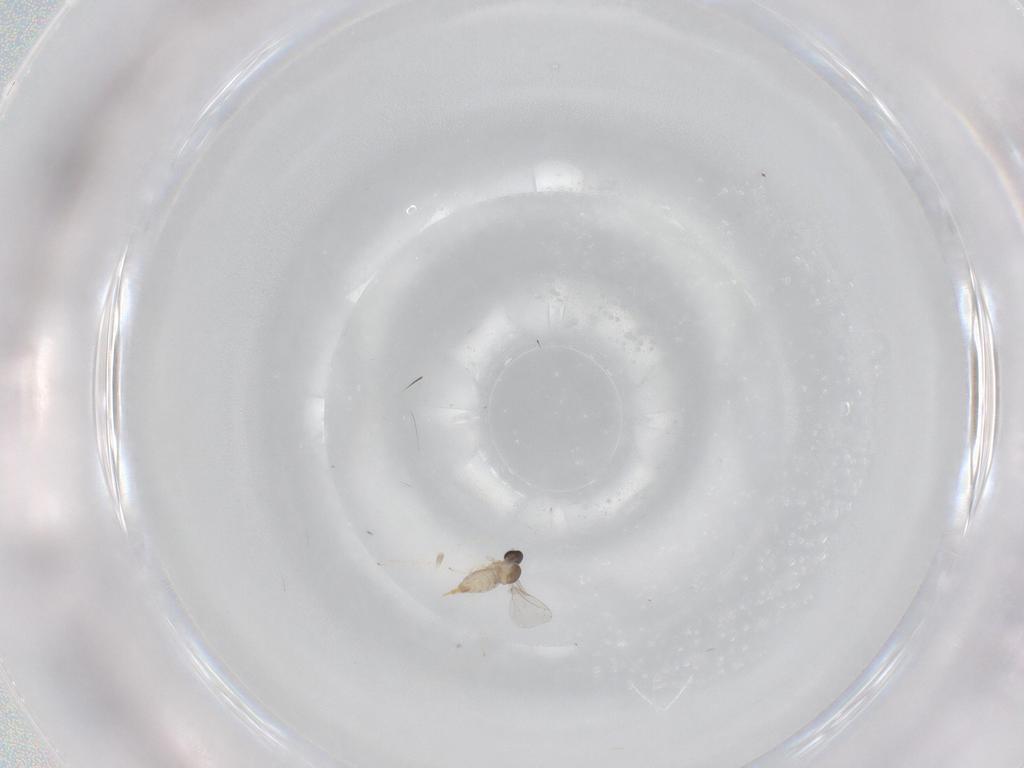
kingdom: Animalia
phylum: Arthropoda
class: Insecta
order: Diptera
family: Cecidomyiidae
